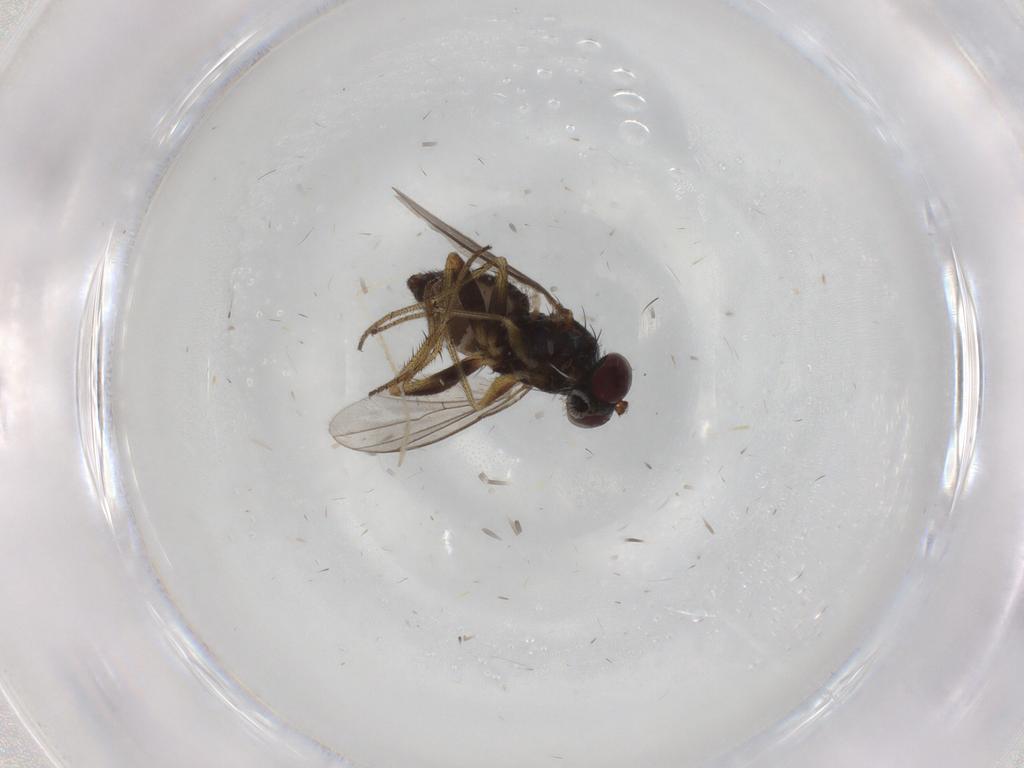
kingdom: Animalia
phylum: Arthropoda
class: Insecta
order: Diptera
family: Dolichopodidae
